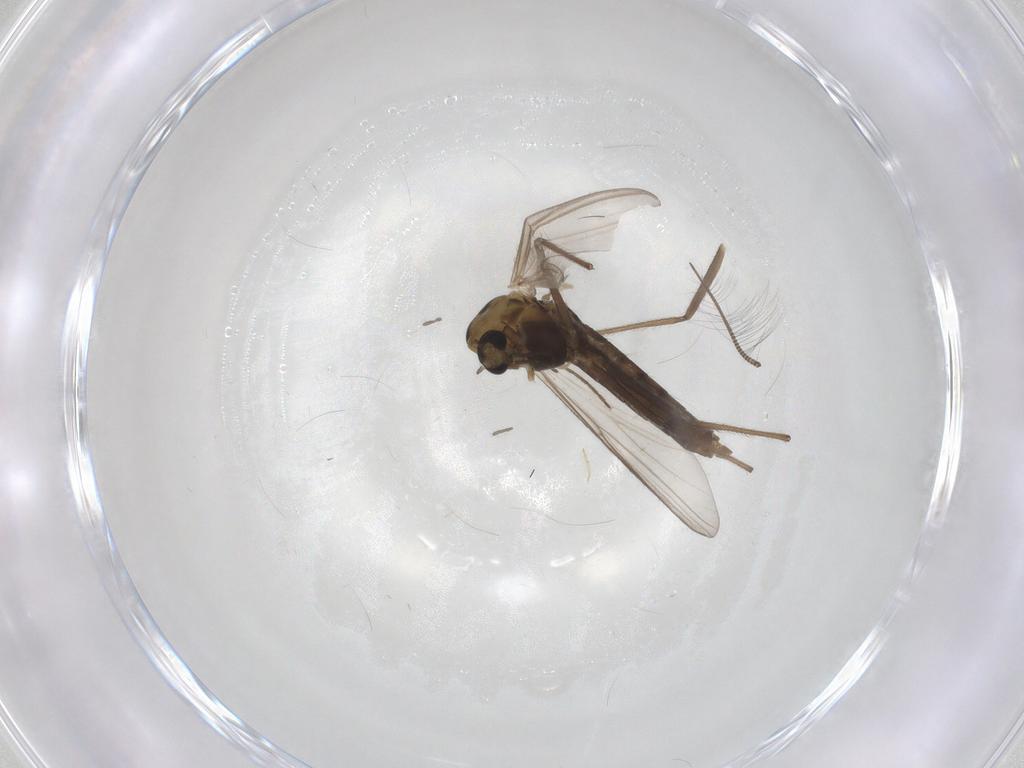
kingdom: Animalia
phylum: Arthropoda
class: Insecta
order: Diptera
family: Chironomidae
